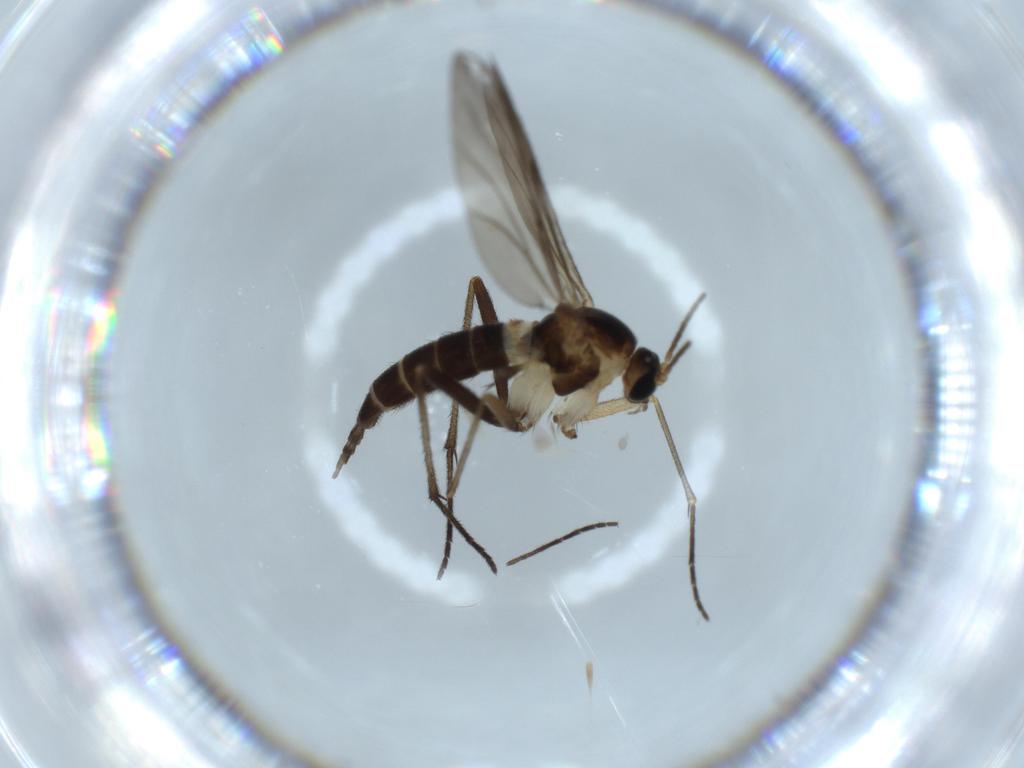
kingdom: Animalia
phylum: Arthropoda
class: Insecta
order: Diptera
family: Sciaridae
